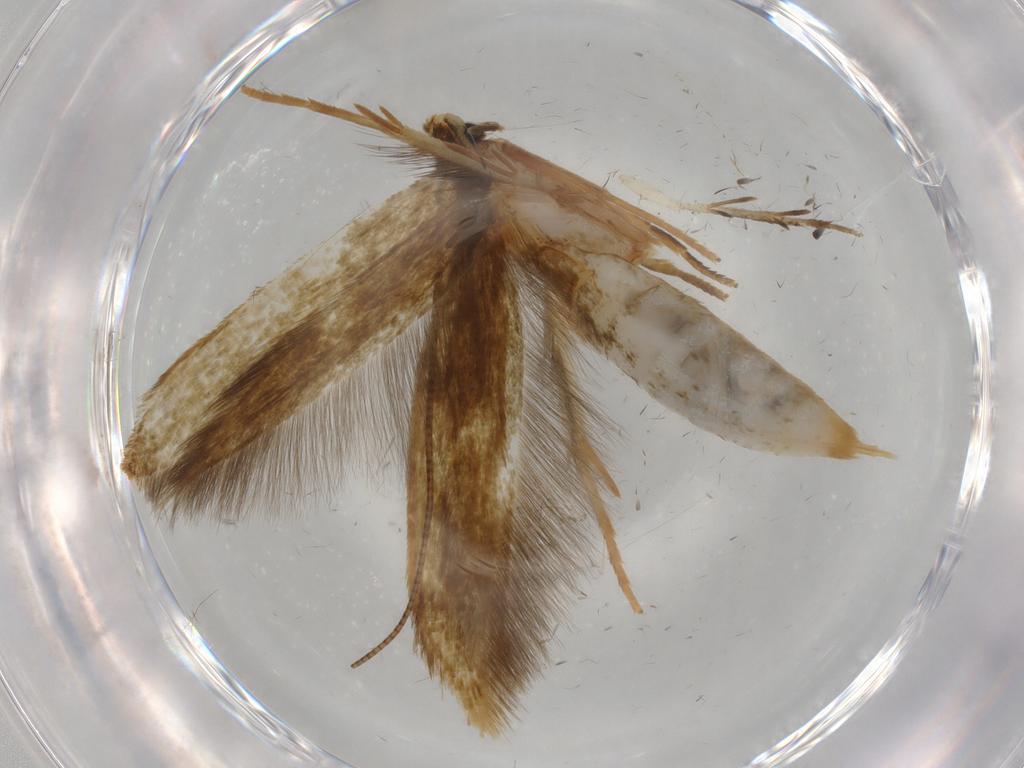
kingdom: Animalia
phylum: Arthropoda
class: Insecta
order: Lepidoptera
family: Tineidae
